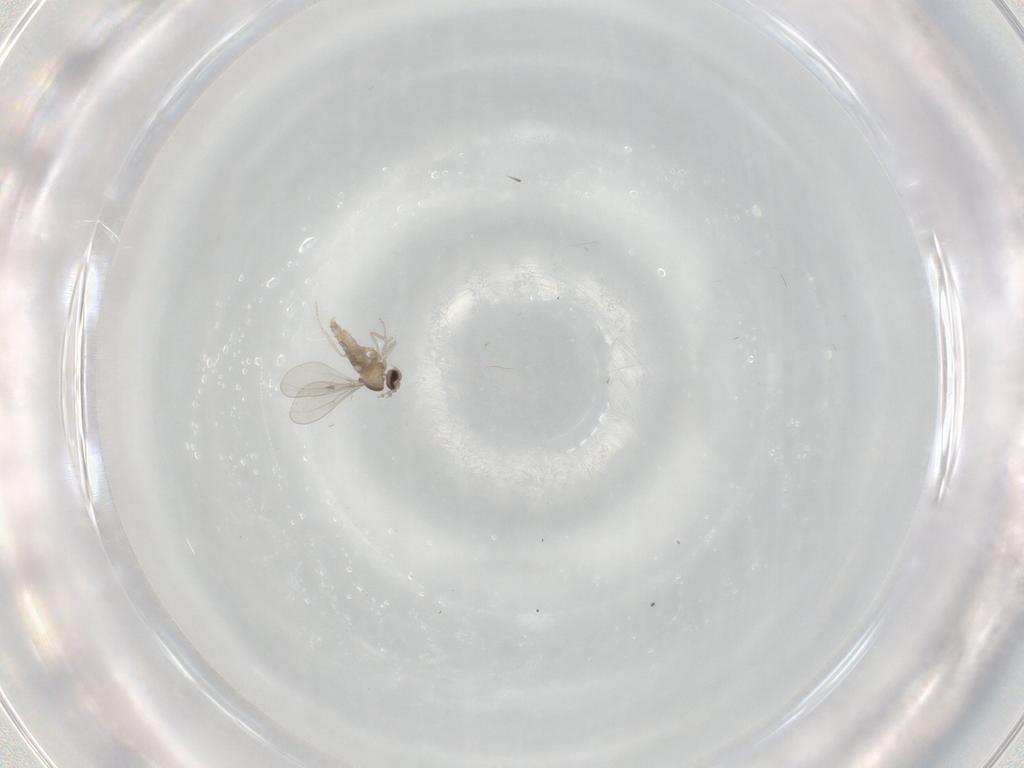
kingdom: Animalia
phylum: Arthropoda
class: Insecta
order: Diptera
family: Cecidomyiidae
